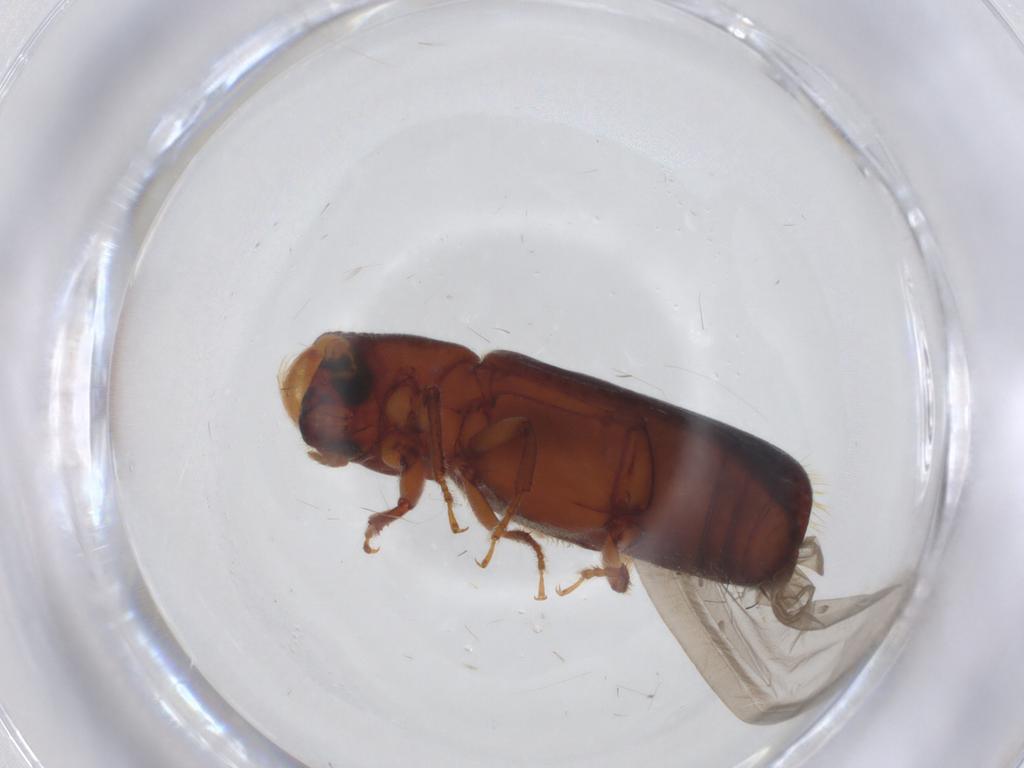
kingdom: Animalia
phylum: Arthropoda
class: Insecta
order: Coleoptera
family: Curculionidae
